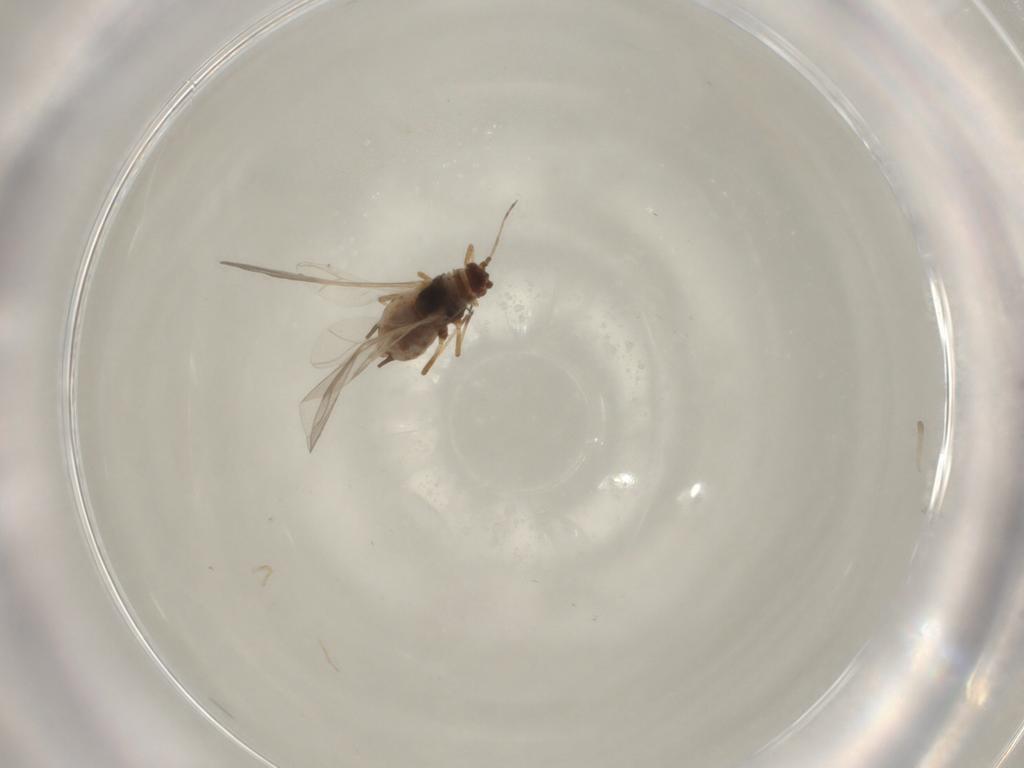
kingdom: Animalia
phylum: Arthropoda
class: Insecta
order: Hemiptera
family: Aphididae
